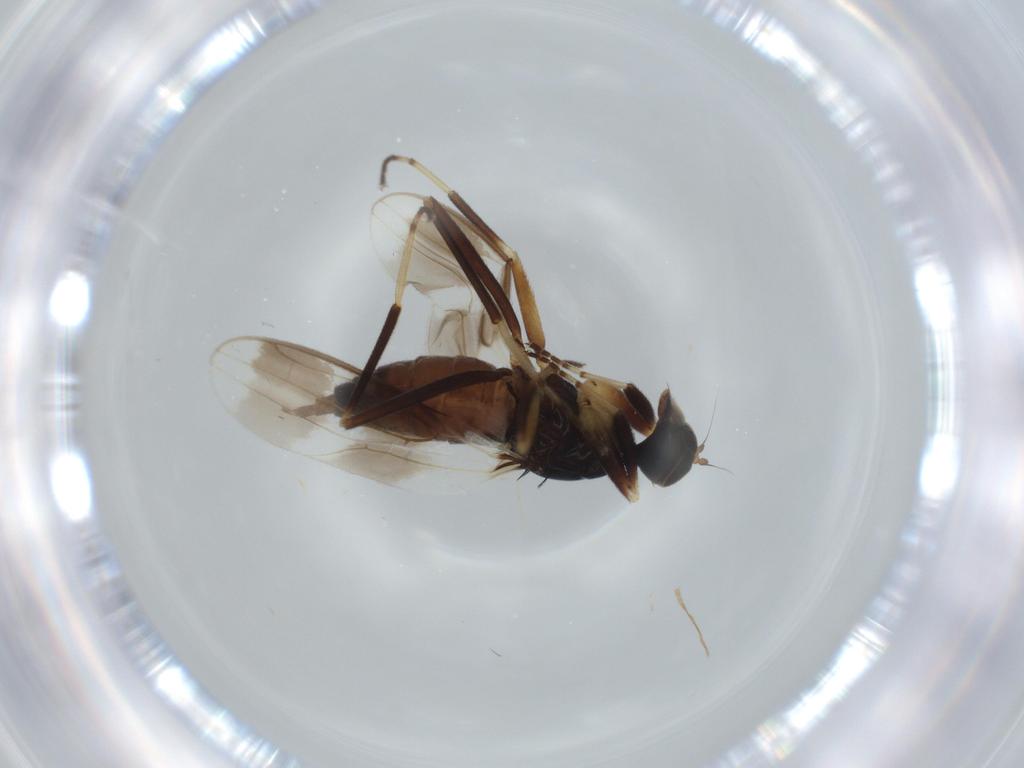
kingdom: Animalia
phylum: Arthropoda
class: Insecta
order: Diptera
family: Hybotidae
